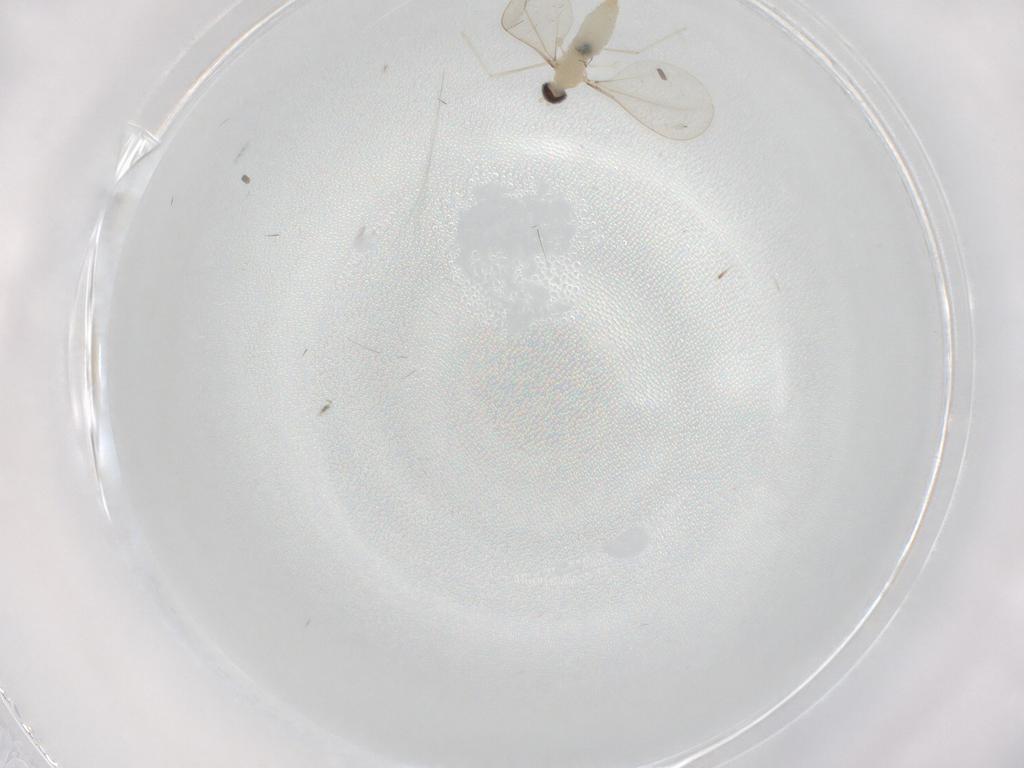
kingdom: Animalia
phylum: Arthropoda
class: Insecta
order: Diptera
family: Cecidomyiidae
